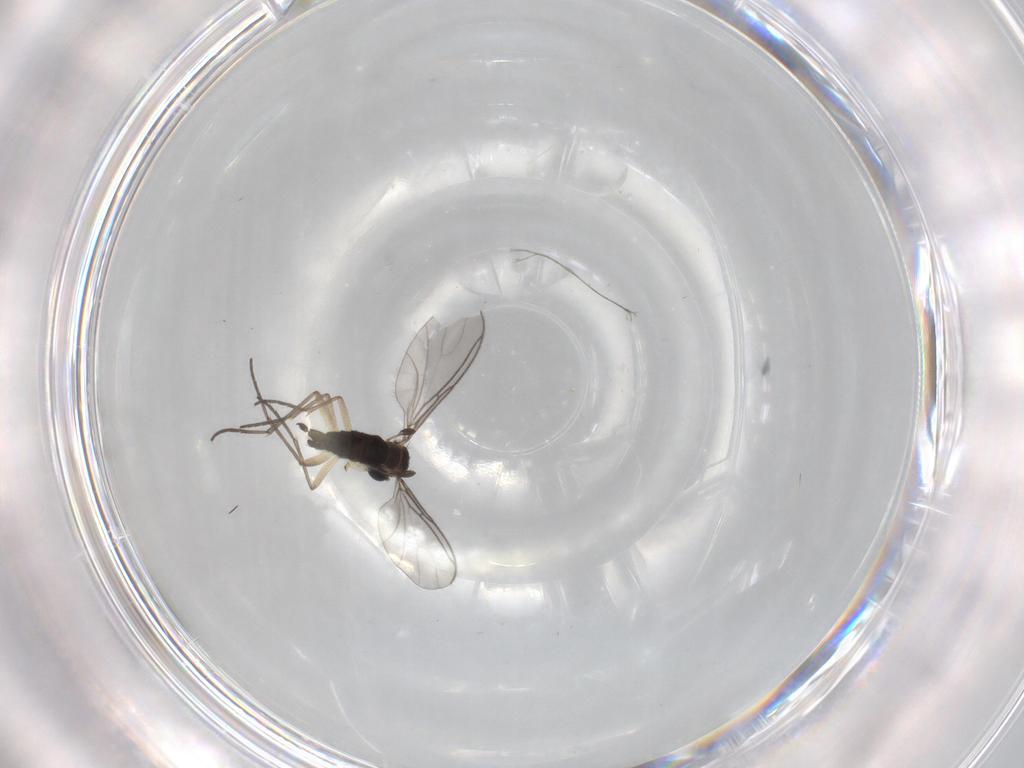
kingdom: Animalia
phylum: Arthropoda
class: Insecta
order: Diptera
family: Sciaridae
